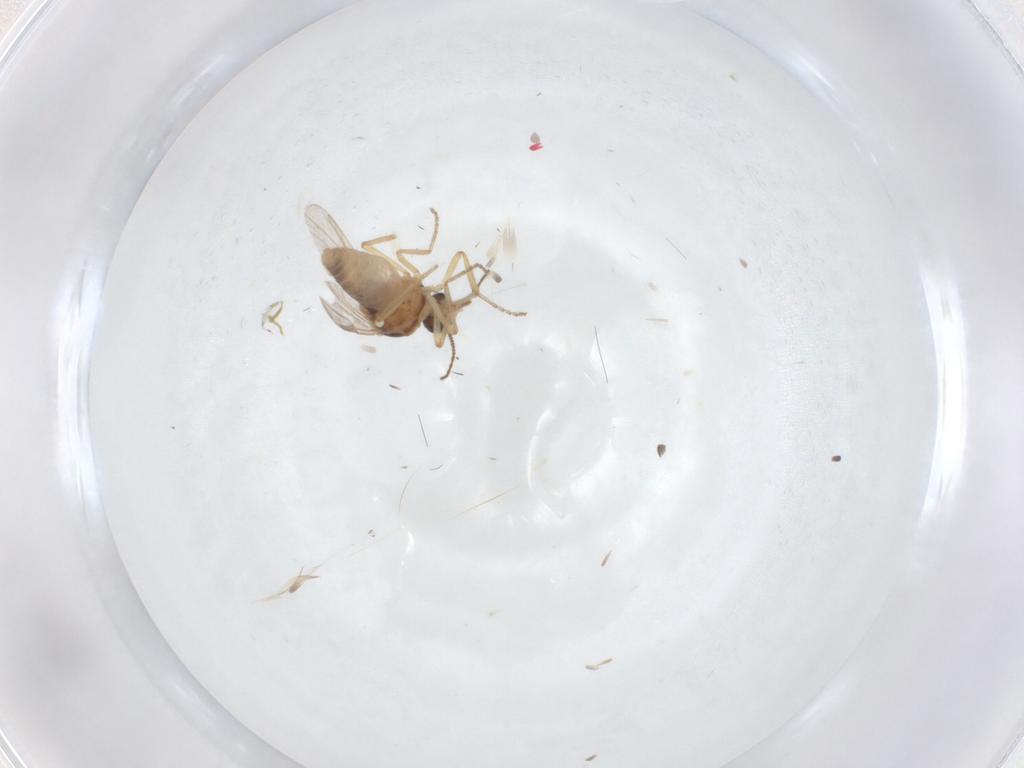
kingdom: Animalia
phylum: Arthropoda
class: Insecta
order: Diptera
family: Ceratopogonidae
